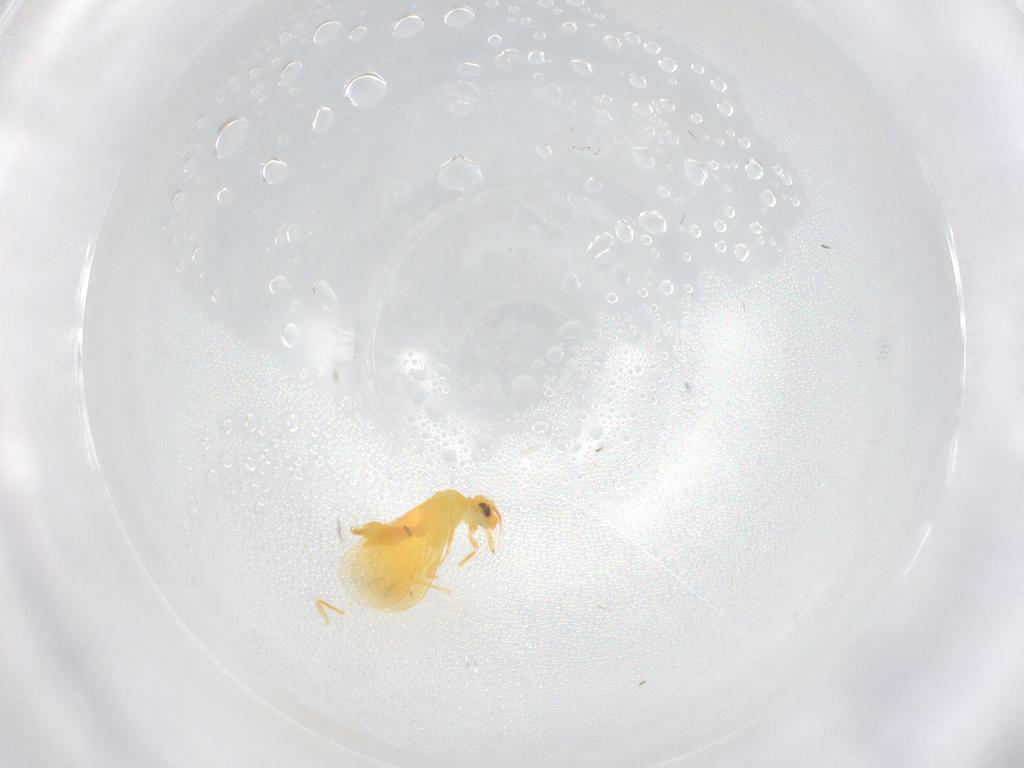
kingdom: Animalia
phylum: Arthropoda
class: Insecta
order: Hemiptera
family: Aleyrodidae
